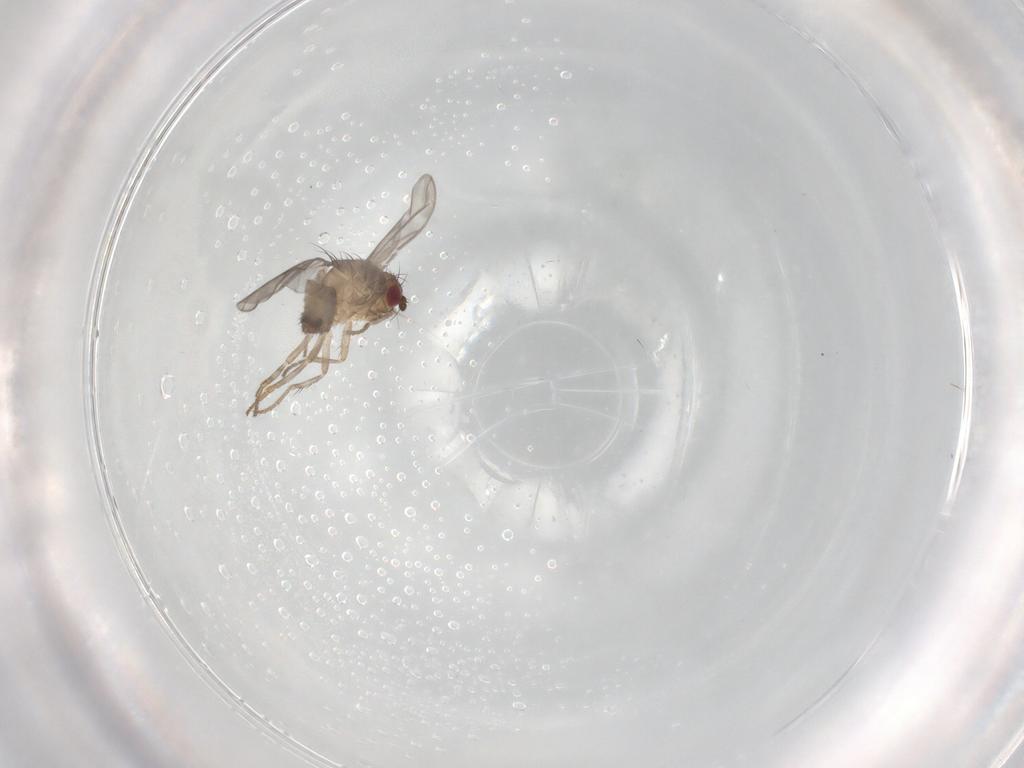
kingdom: Animalia
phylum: Arthropoda
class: Insecta
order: Diptera
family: Sphaeroceridae
